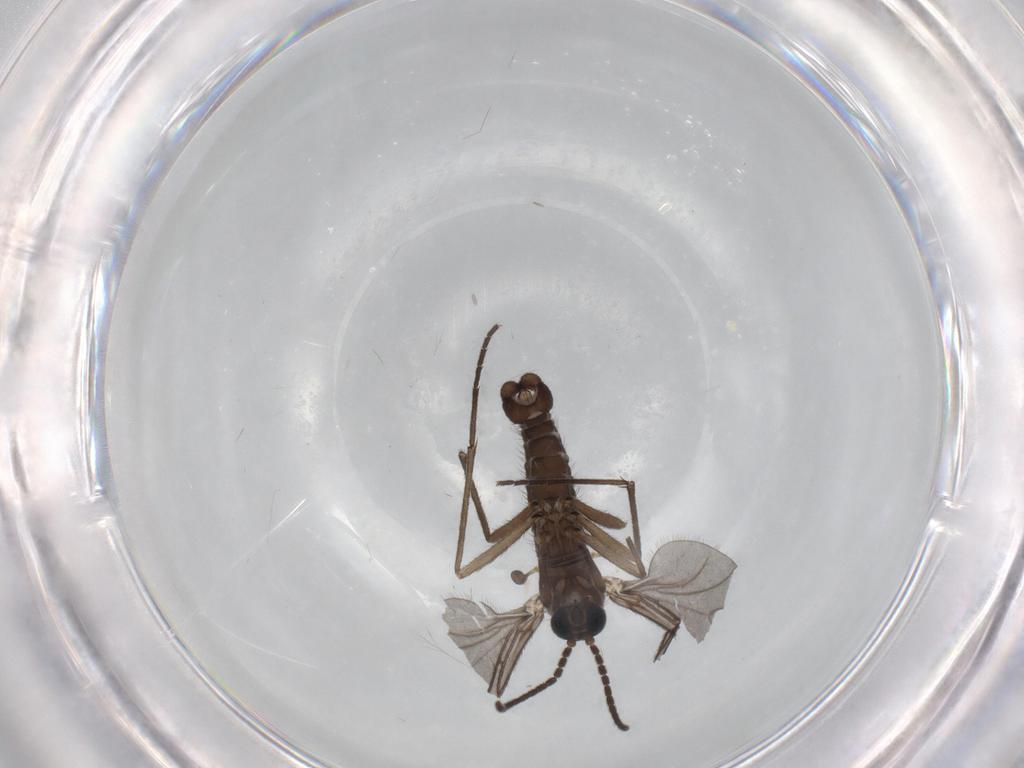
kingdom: Animalia
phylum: Arthropoda
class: Insecta
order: Diptera
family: Sciaridae
